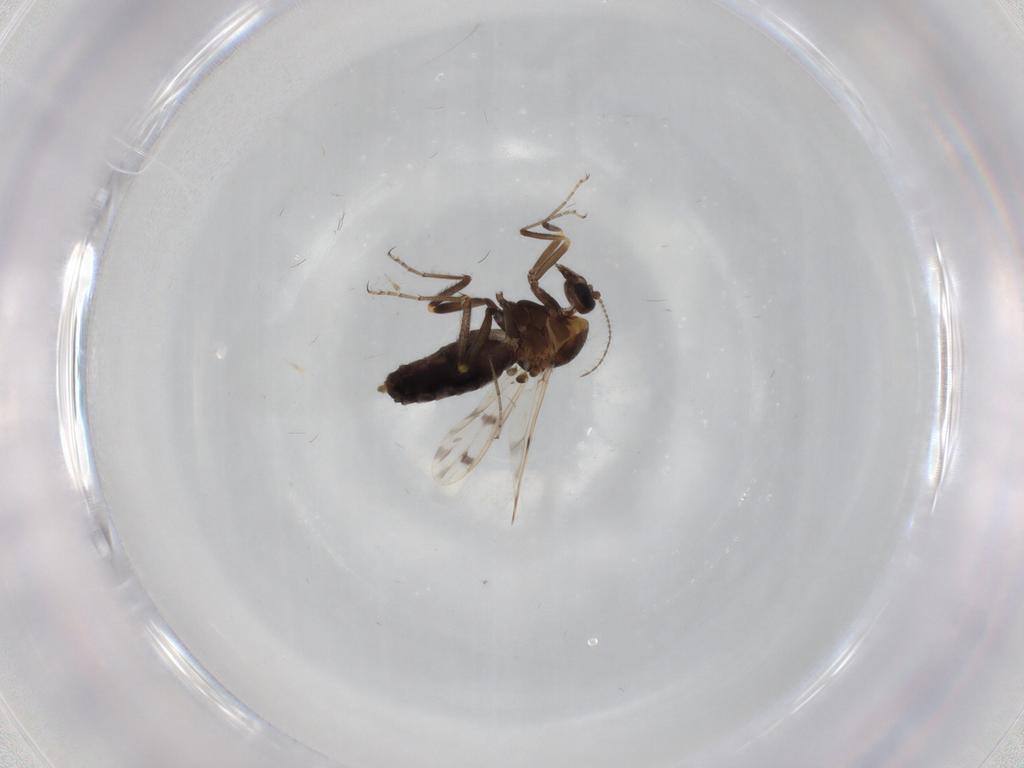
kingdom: Animalia
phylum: Arthropoda
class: Insecta
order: Diptera
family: Ceratopogonidae
